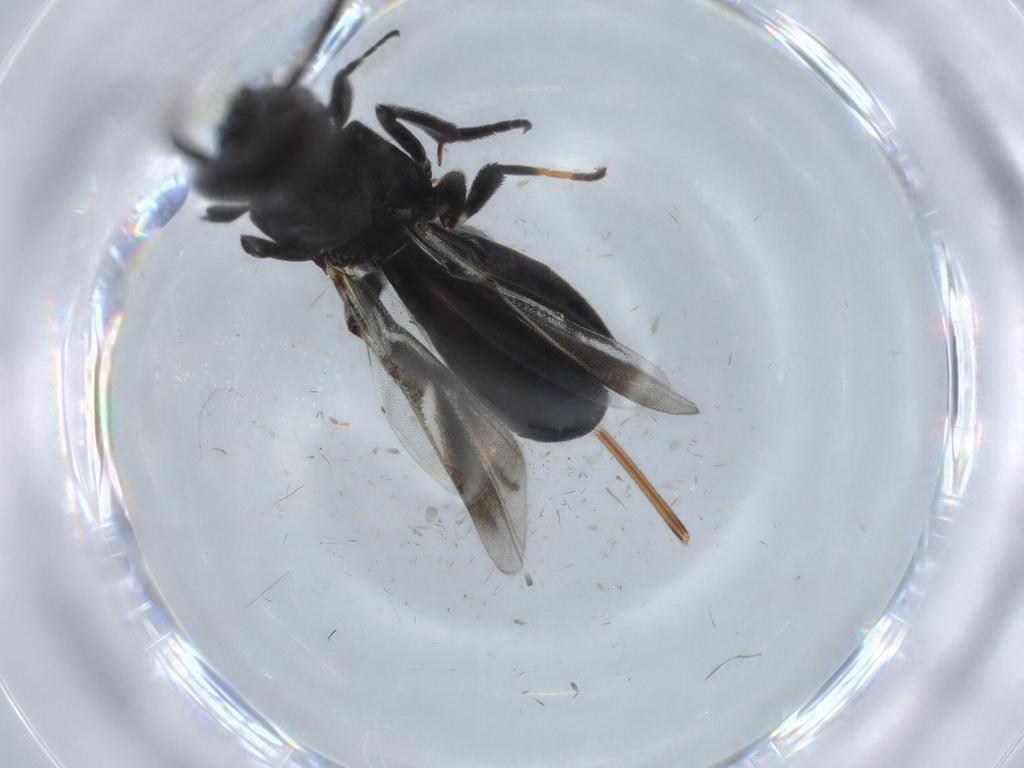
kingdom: Animalia
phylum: Arthropoda
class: Insecta
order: Hymenoptera
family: Eupelmidae
